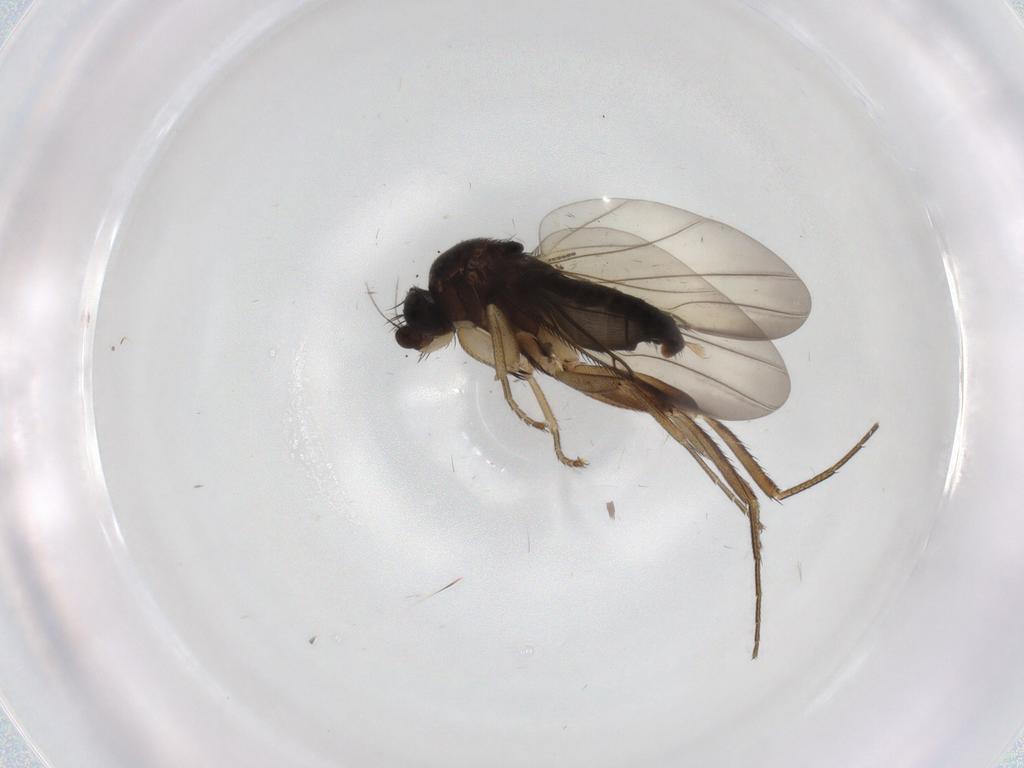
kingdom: Animalia
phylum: Arthropoda
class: Insecta
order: Diptera
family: Phoridae
